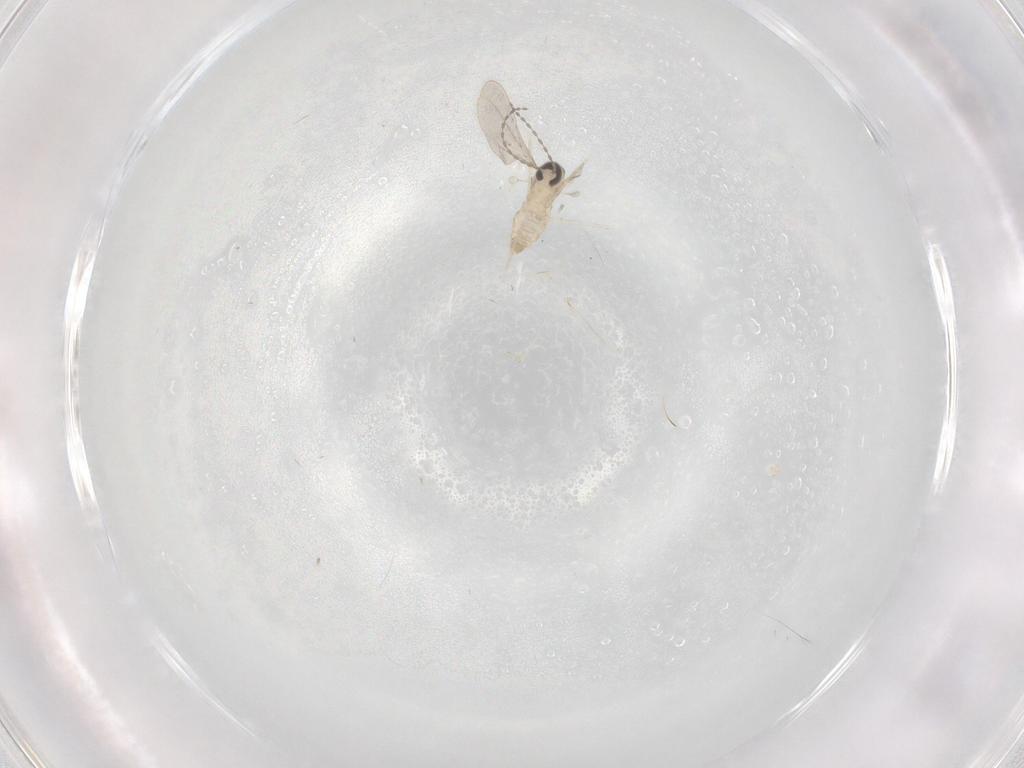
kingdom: Animalia
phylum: Arthropoda
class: Insecta
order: Diptera
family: Cecidomyiidae
